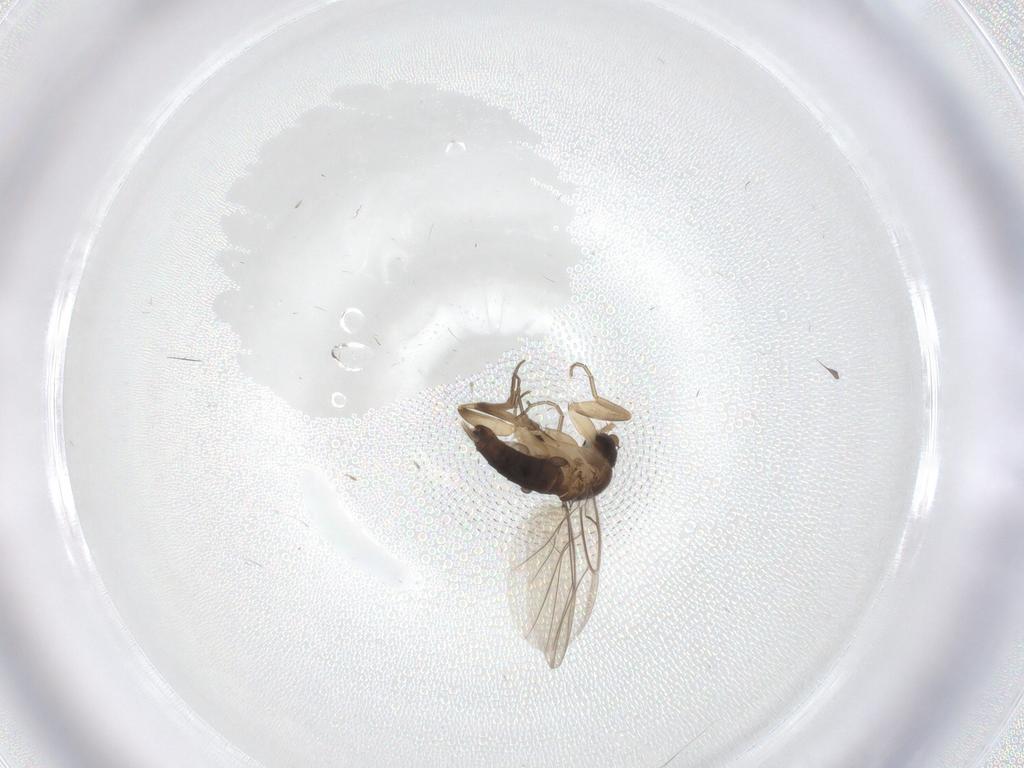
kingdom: Animalia
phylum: Arthropoda
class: Insecta
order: Diptera
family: Phoridae
